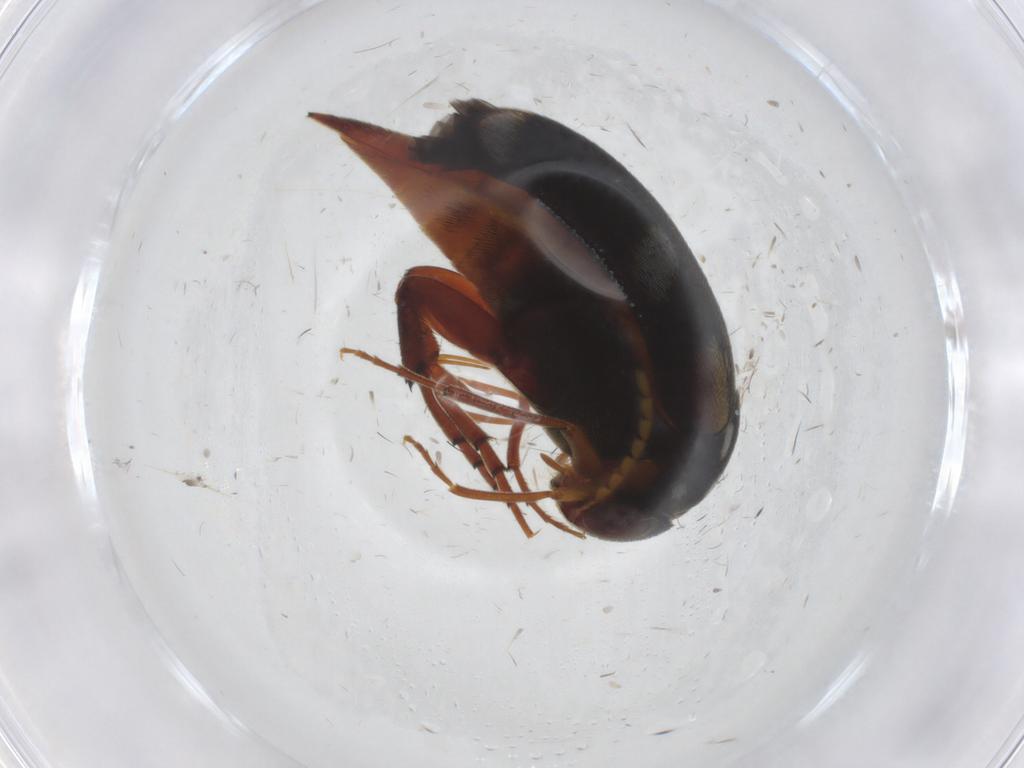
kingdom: Animalia
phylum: Arthropoda
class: Insecta
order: Coleoptera
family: Mordellidae
